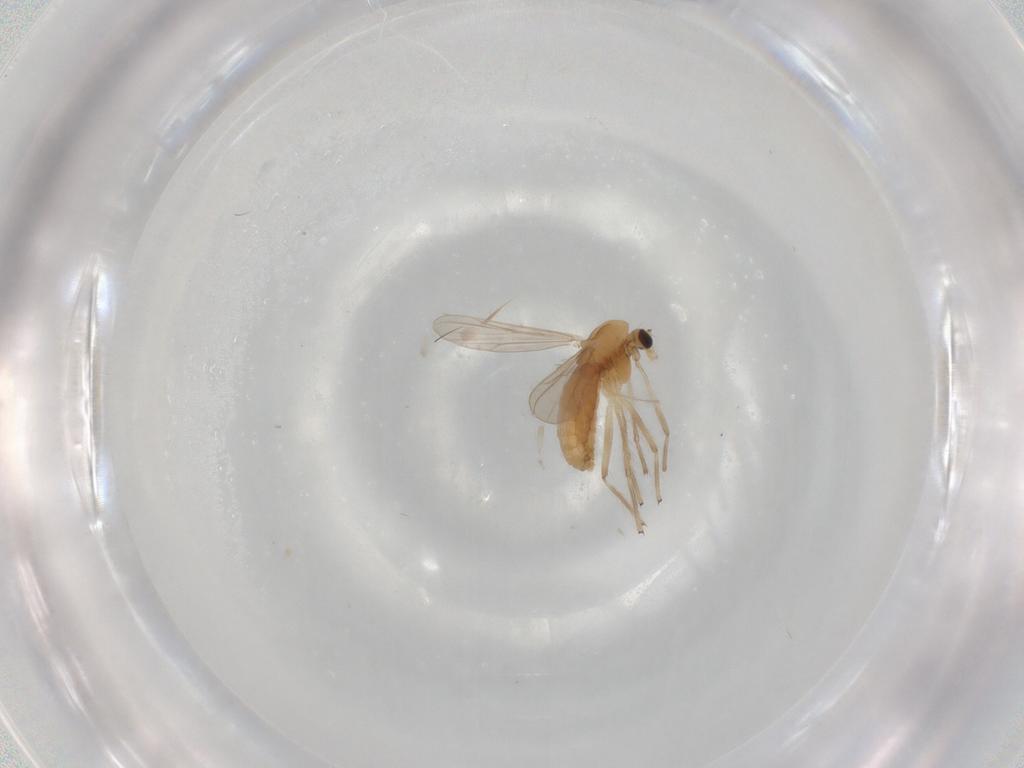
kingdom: Animalia
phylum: Arthropoda
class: Insecta
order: Diptera
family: Chironomidae
